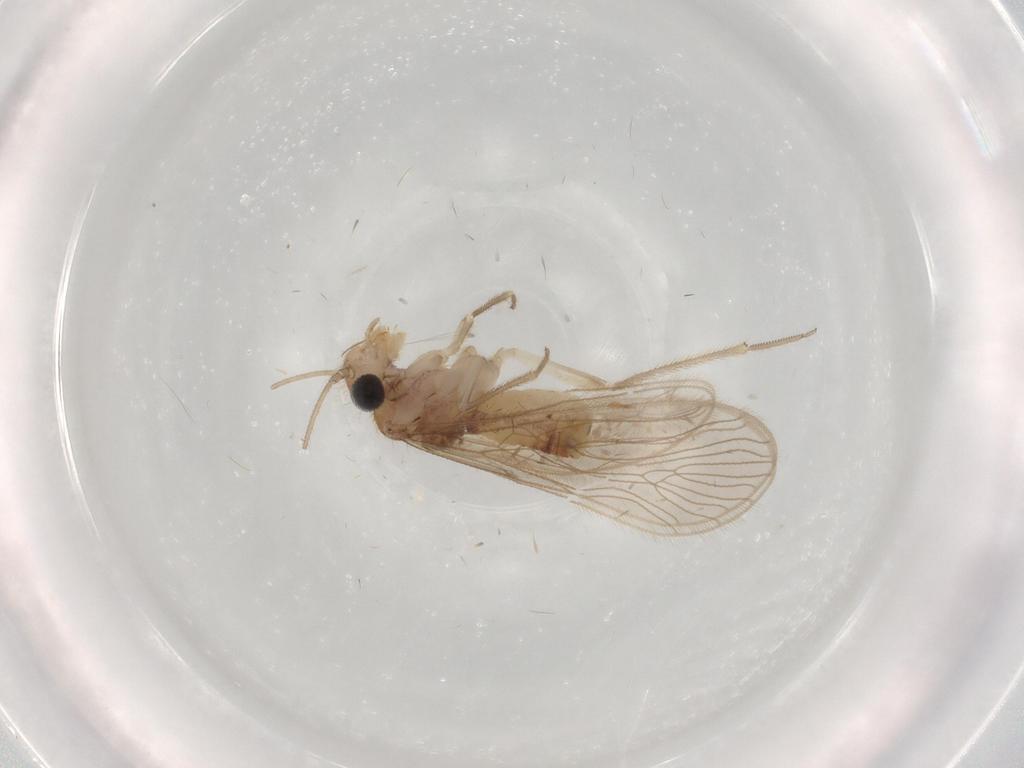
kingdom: Animalia
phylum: Arthropoda
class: Insecta
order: Psocodea
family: Caeciliusidae
